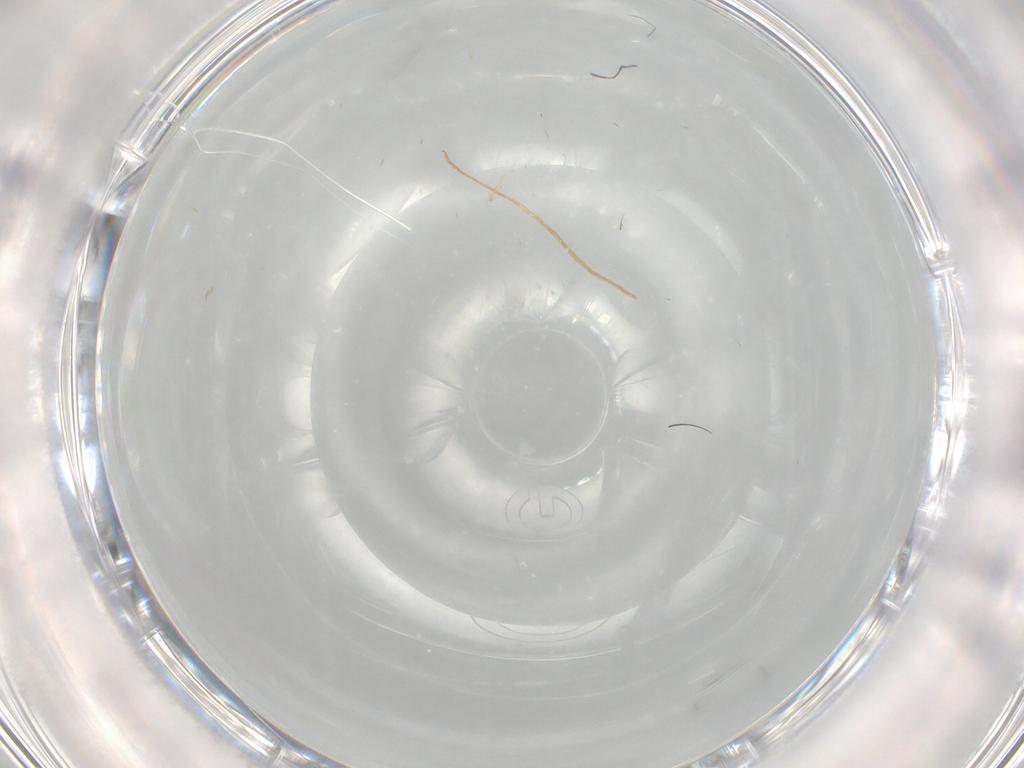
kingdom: Animalia
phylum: Arthropoda
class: Insecta
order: Psocodea
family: Caeciliusidae
